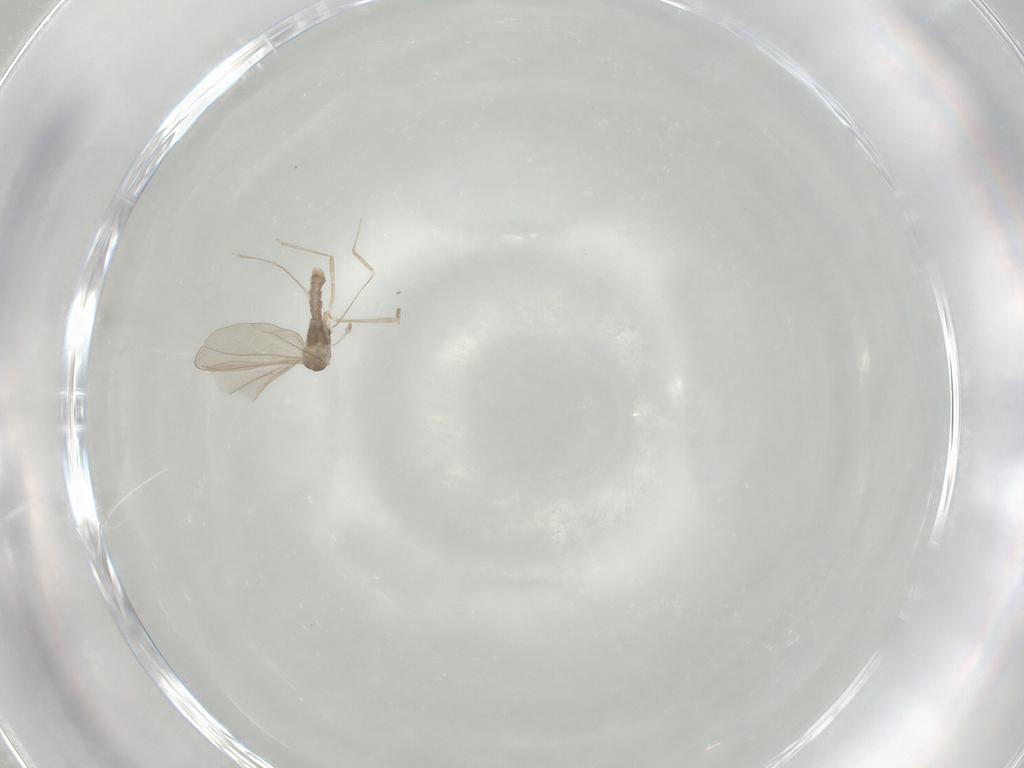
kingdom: Animalia
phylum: Arthropoda
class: Insecta
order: Diptera
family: Cecidomyiidae
